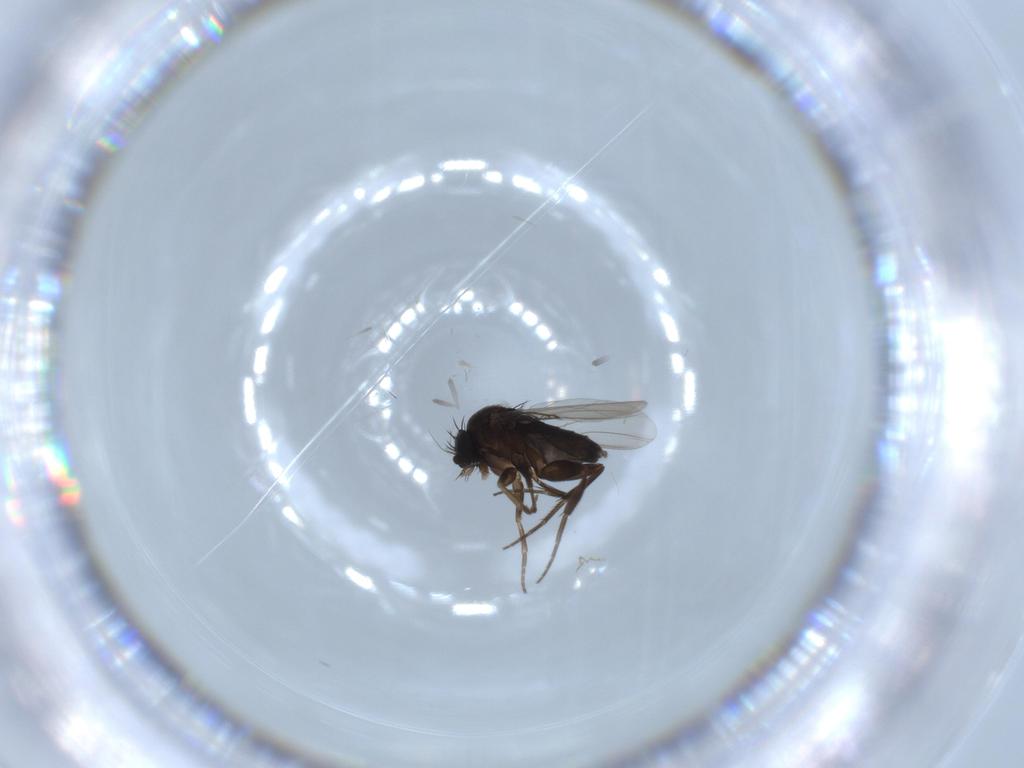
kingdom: Animalia
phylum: Arthropoda
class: Insecta
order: Diptera
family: Phoridae
